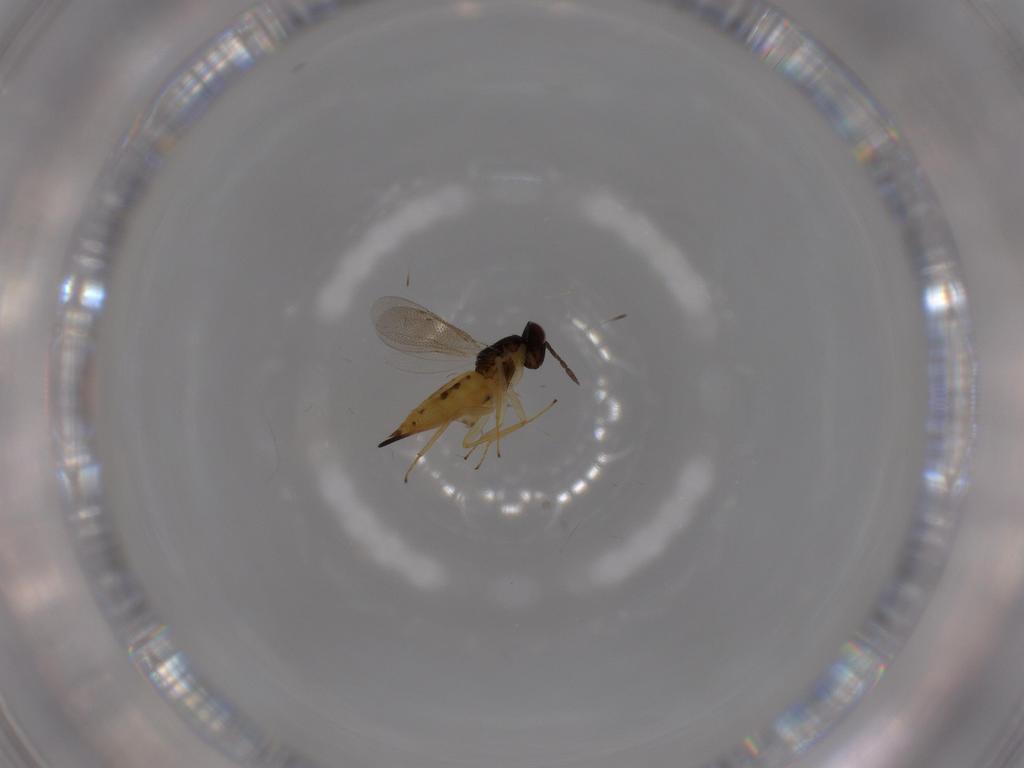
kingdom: Animalia
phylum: Arthropoda
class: Insecta
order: Hymenoptera
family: Eulophidae
